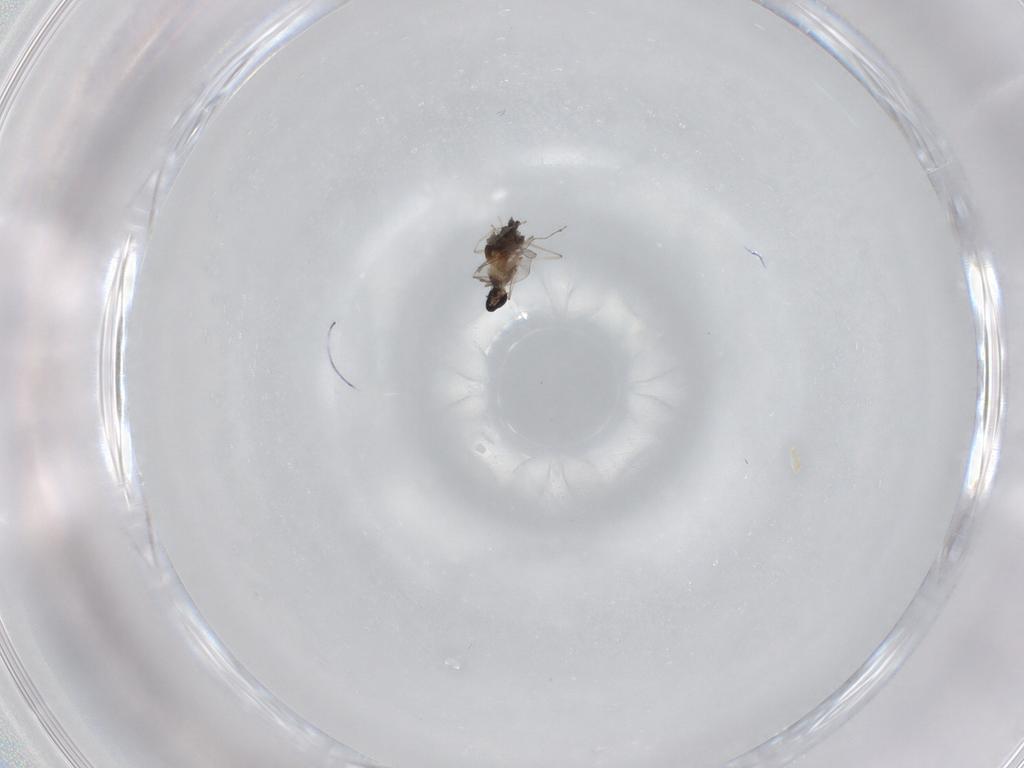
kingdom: Animalia
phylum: Arthropoda
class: Insecta
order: Diptera
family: Cecidomyiidae
